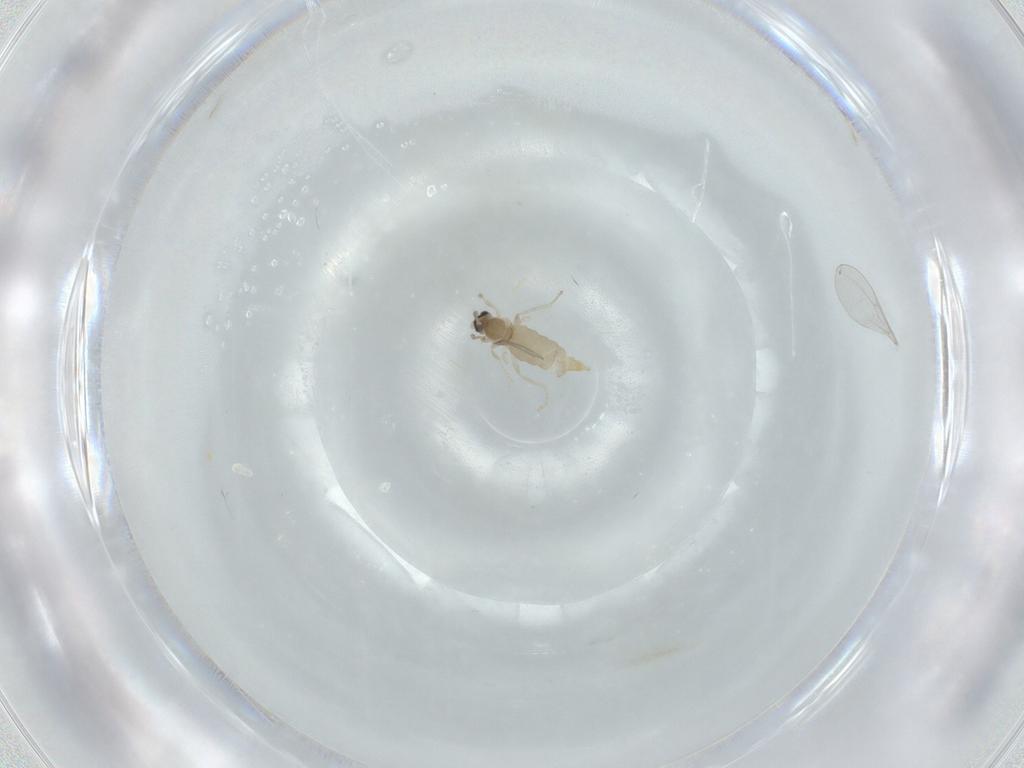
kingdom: Animalia
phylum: Arthropoda
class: Insecta
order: Diptera
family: Cecidomyiidae
